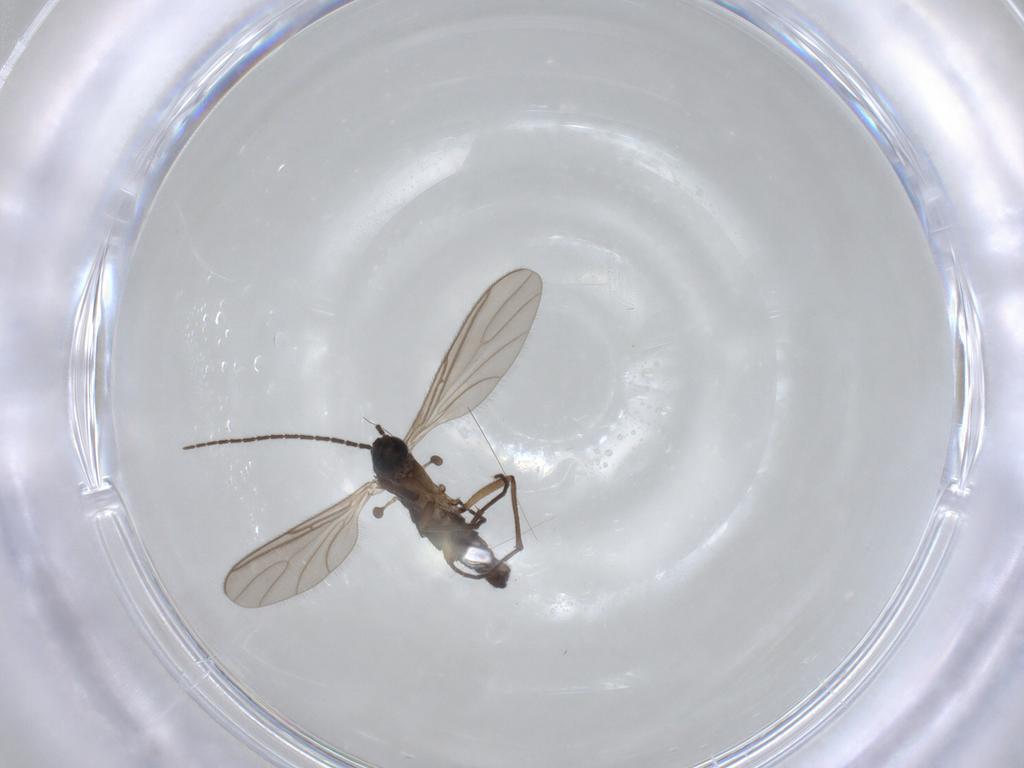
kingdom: Animalia
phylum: Arthropoda
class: Insecta
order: Diptera
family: Sciaridae
